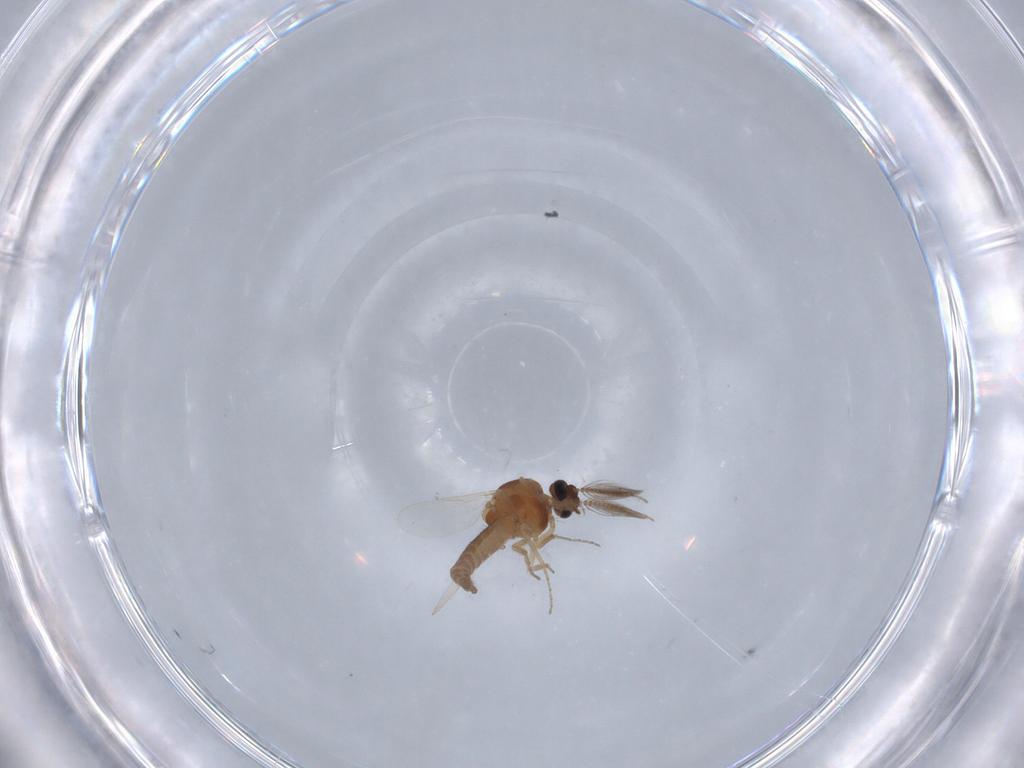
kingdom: Animalia
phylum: Arthropoda
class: Insecta
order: Diptera
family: Ceratopogonidae
